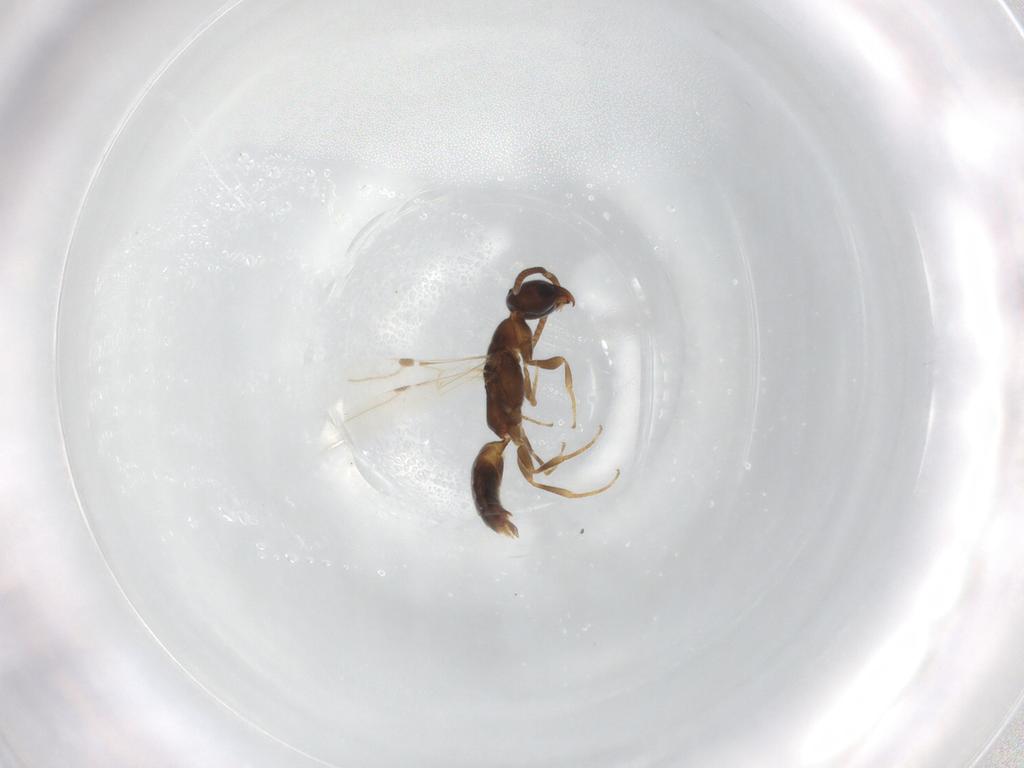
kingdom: Animalia
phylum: Arthropoda
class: Insecta
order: Hymenoptera
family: Bethylidae
